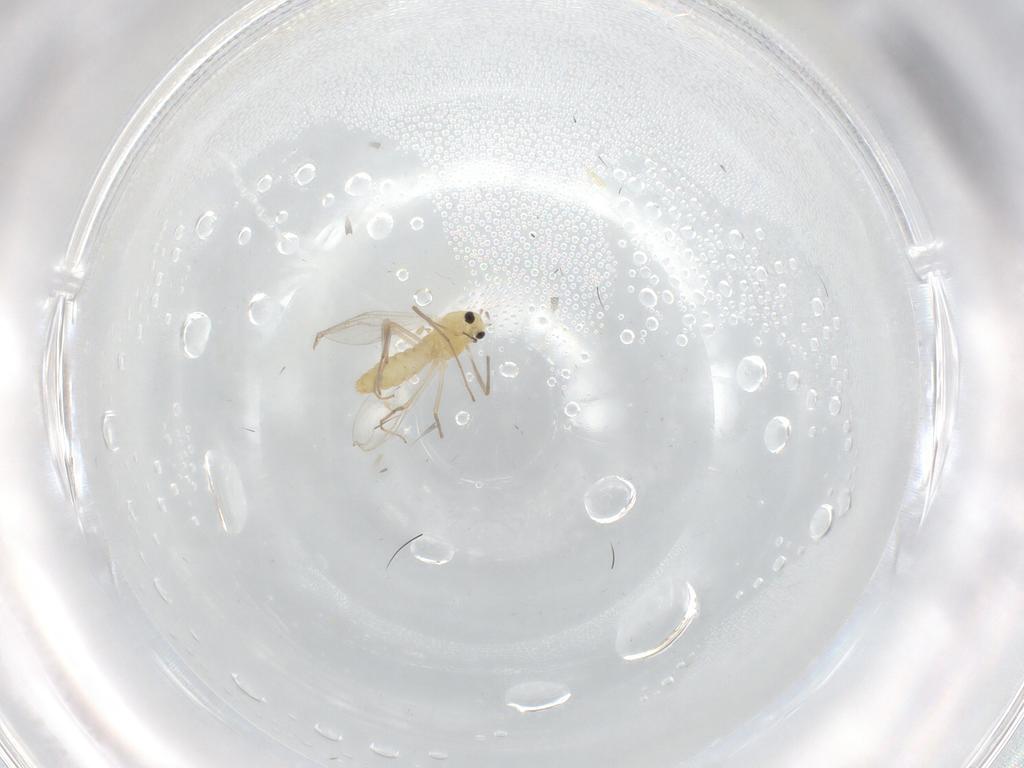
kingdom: Animalia
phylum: Arthropoda
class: Insecta
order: Diptera
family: Chironomidae
